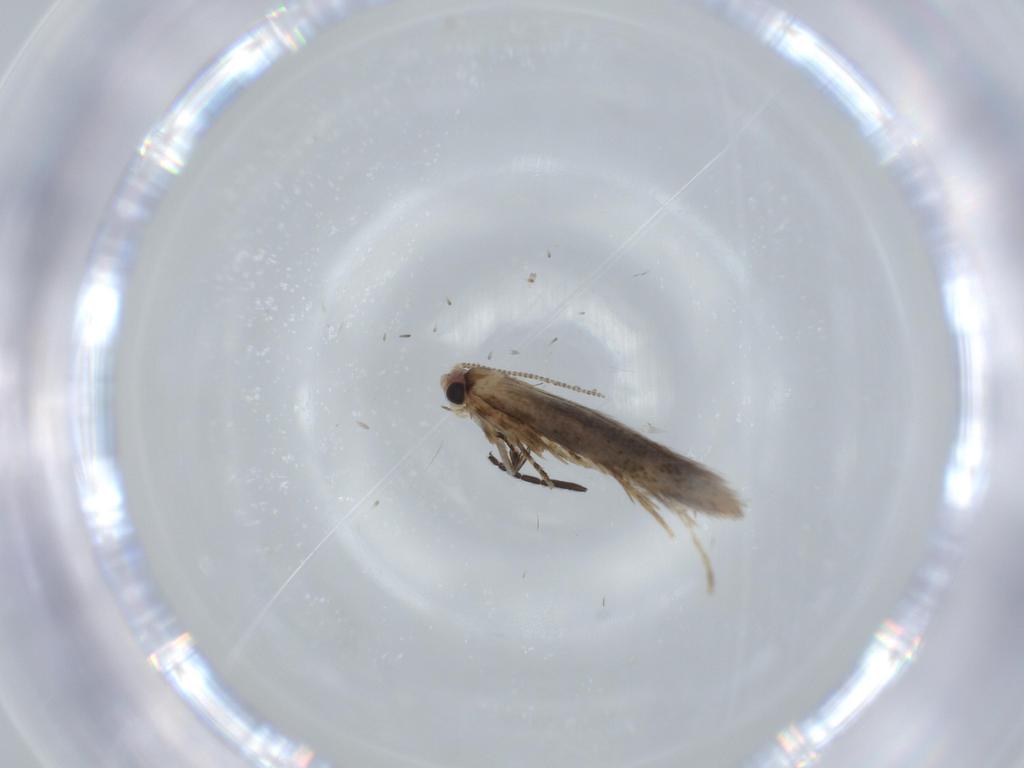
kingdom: Animalia
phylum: Arthropoda
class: Insecta
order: Lepidoptera
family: Tineidae
